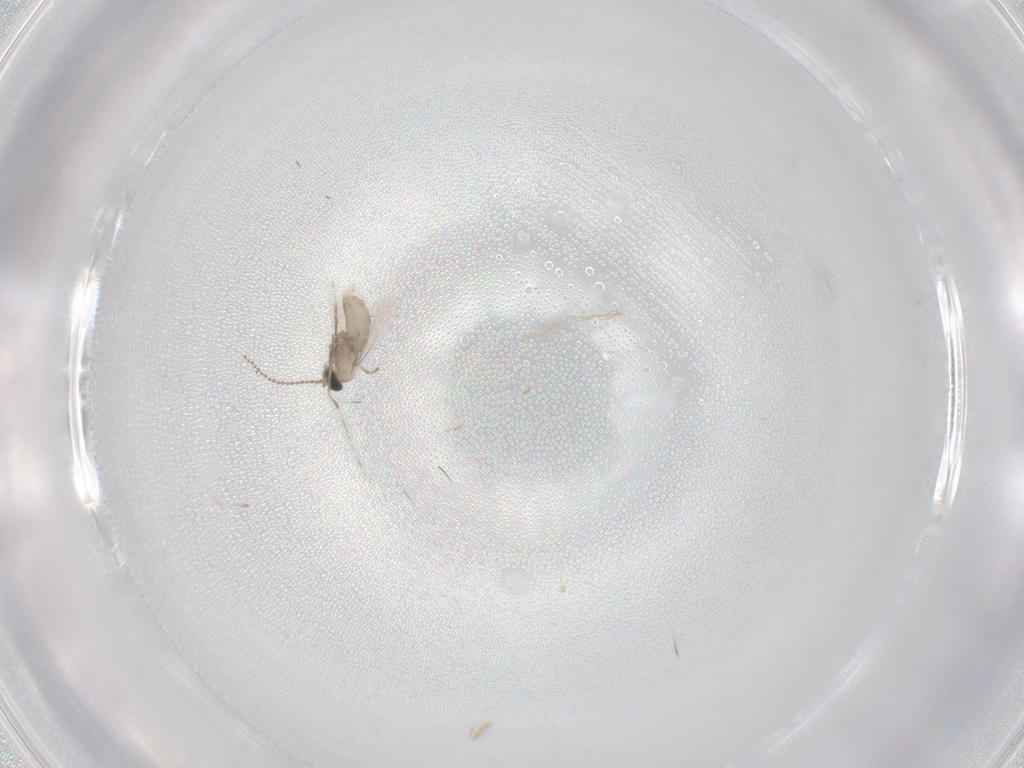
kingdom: Animalia
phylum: Arthropoda
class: Insecta
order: Diptera
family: Cecidomyiidae
